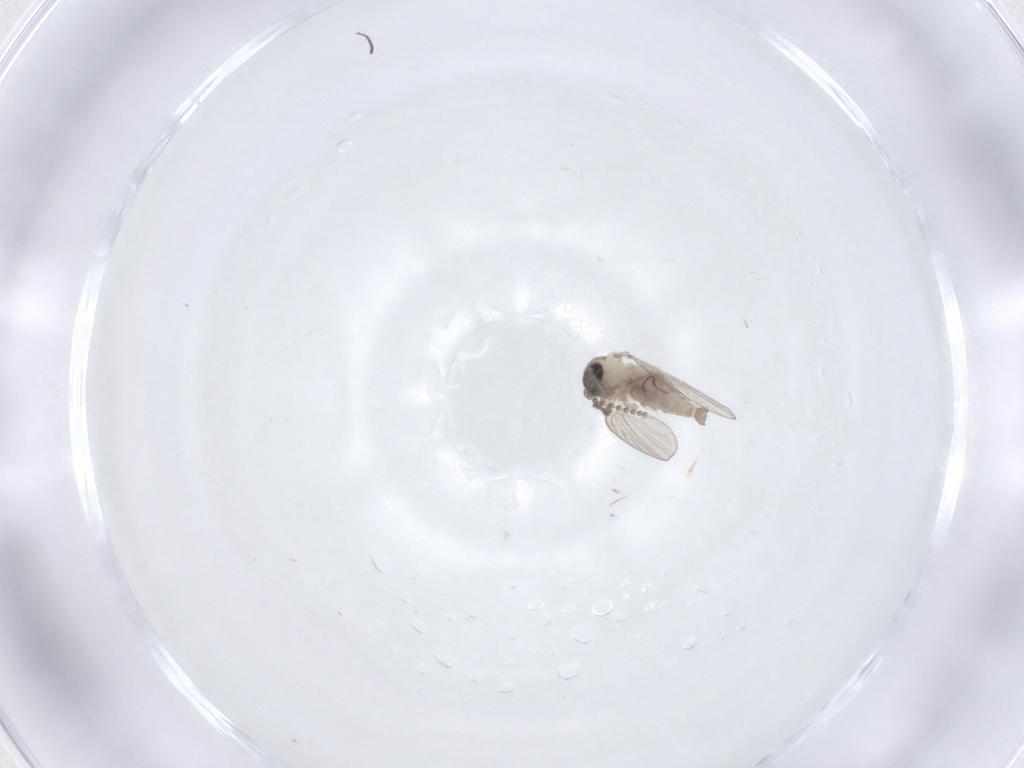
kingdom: Animalia
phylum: Arthropoda
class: Insecta
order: Diptera
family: Psychodidae
